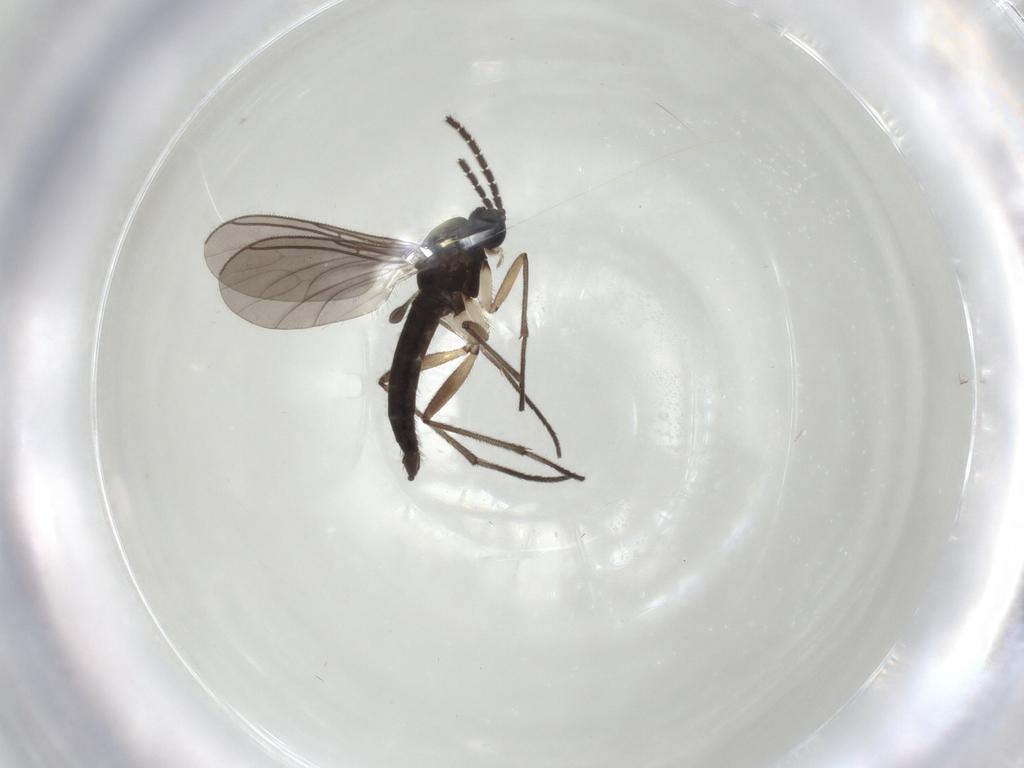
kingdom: Animalia
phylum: Arthropoda
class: Insecta
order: Diptera
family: Sciaridae
